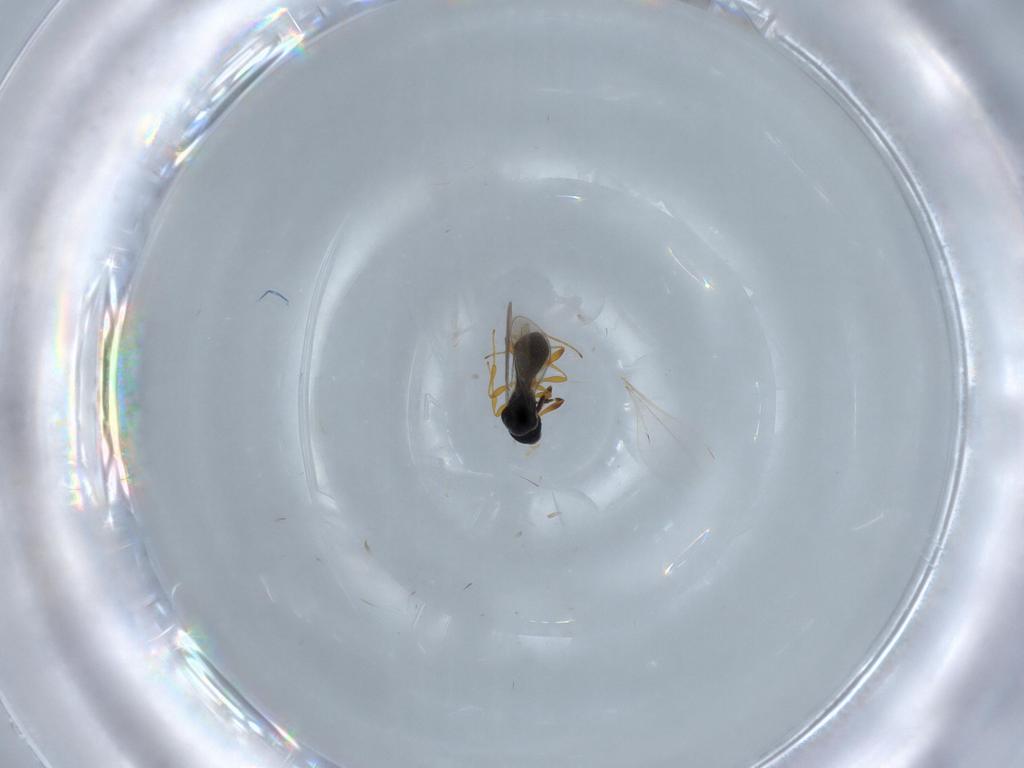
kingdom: Animalia
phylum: Arthropoda
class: Insecta
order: Hymenoptera
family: Platygastridae
